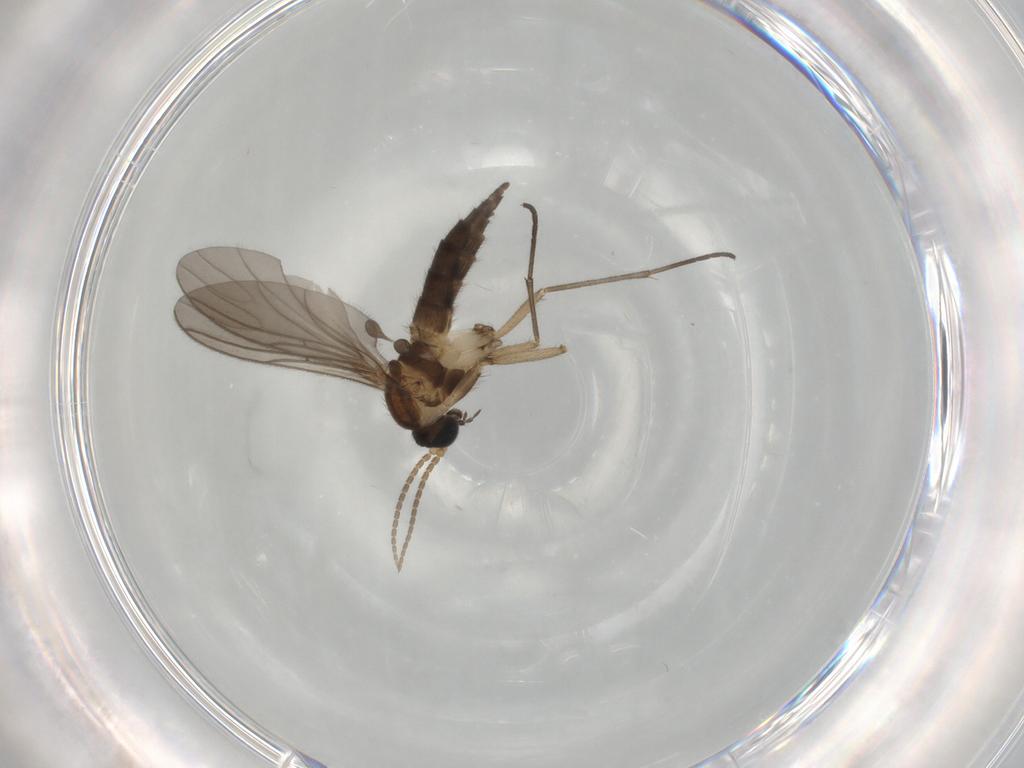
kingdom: Animalia
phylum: Arthropoda
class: Insecta
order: Diptera
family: Sciaridae
